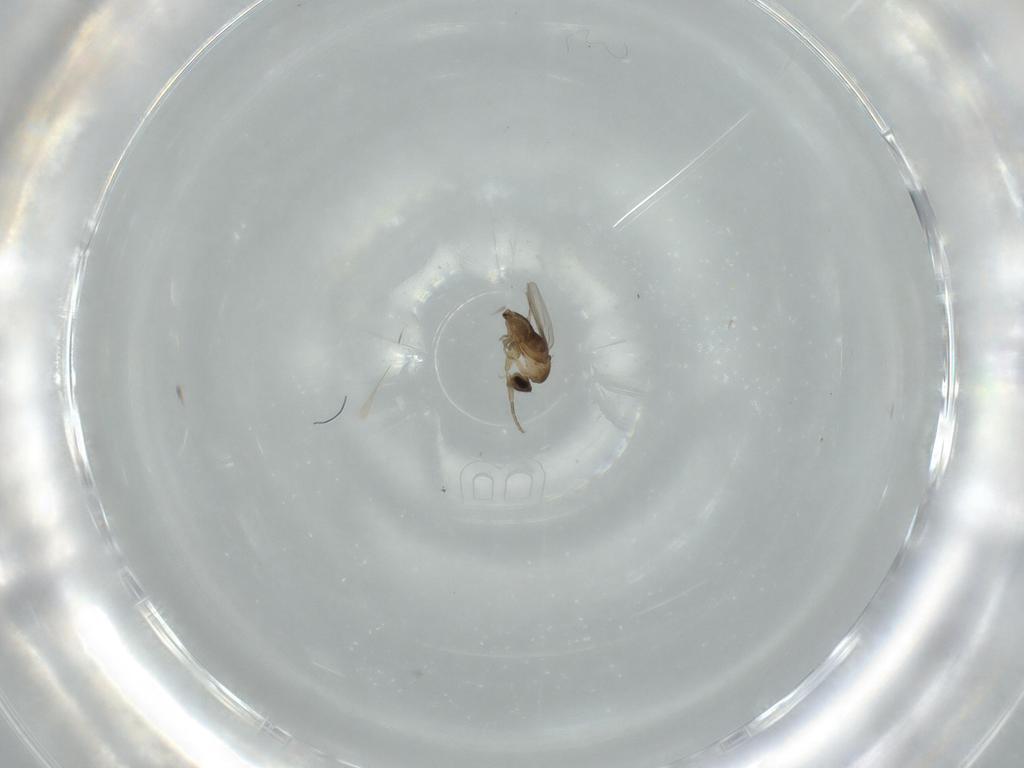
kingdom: Animalia
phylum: Arthropoda
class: Insecta
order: Diptera
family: Phoridae
